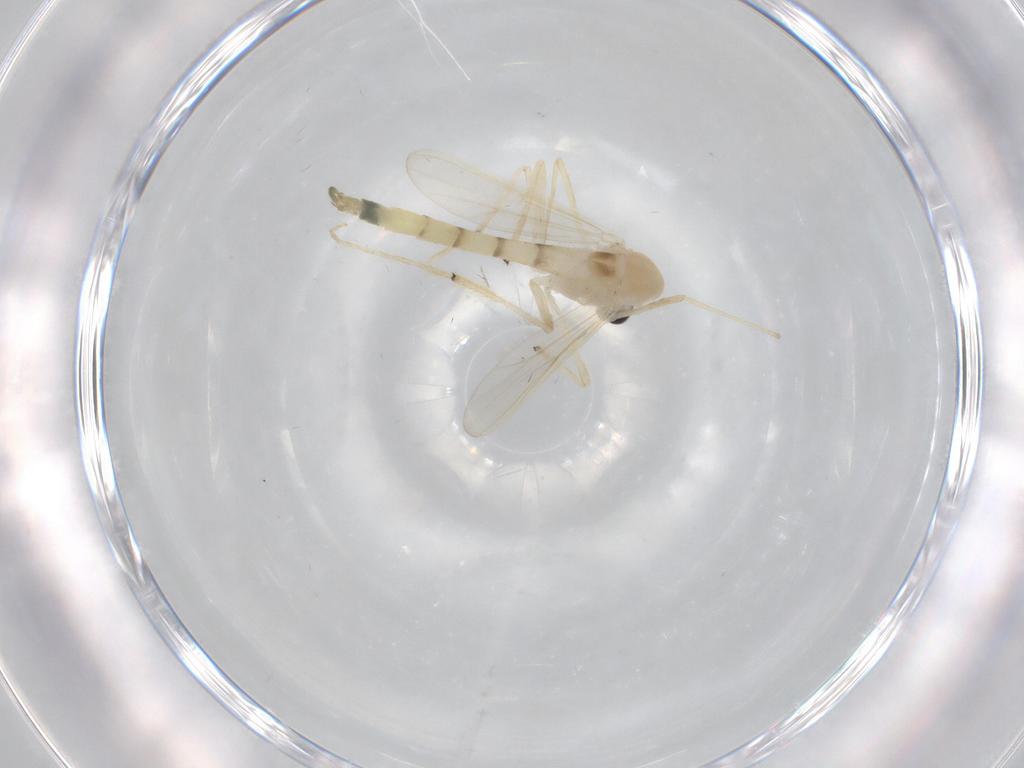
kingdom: Animalia
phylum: Arthropoda
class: Insecta
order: Diptera
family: Chironomidae
